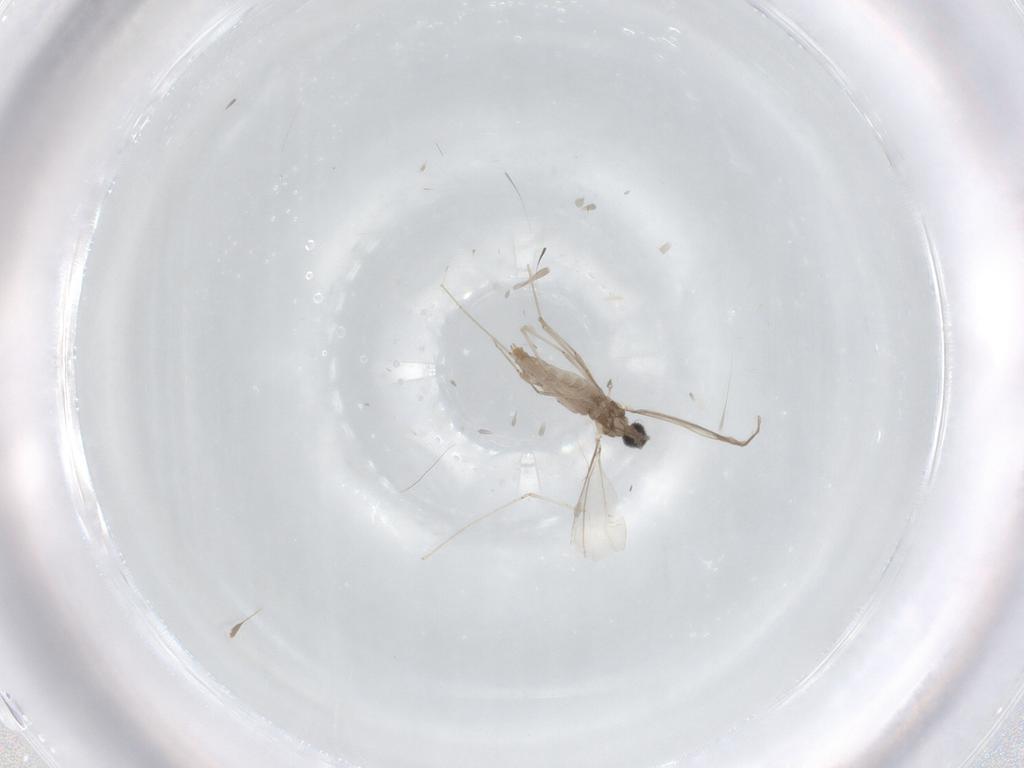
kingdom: Animalia
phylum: Arthropoda
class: Insecta
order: Diptera
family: Cecidomyiidae
